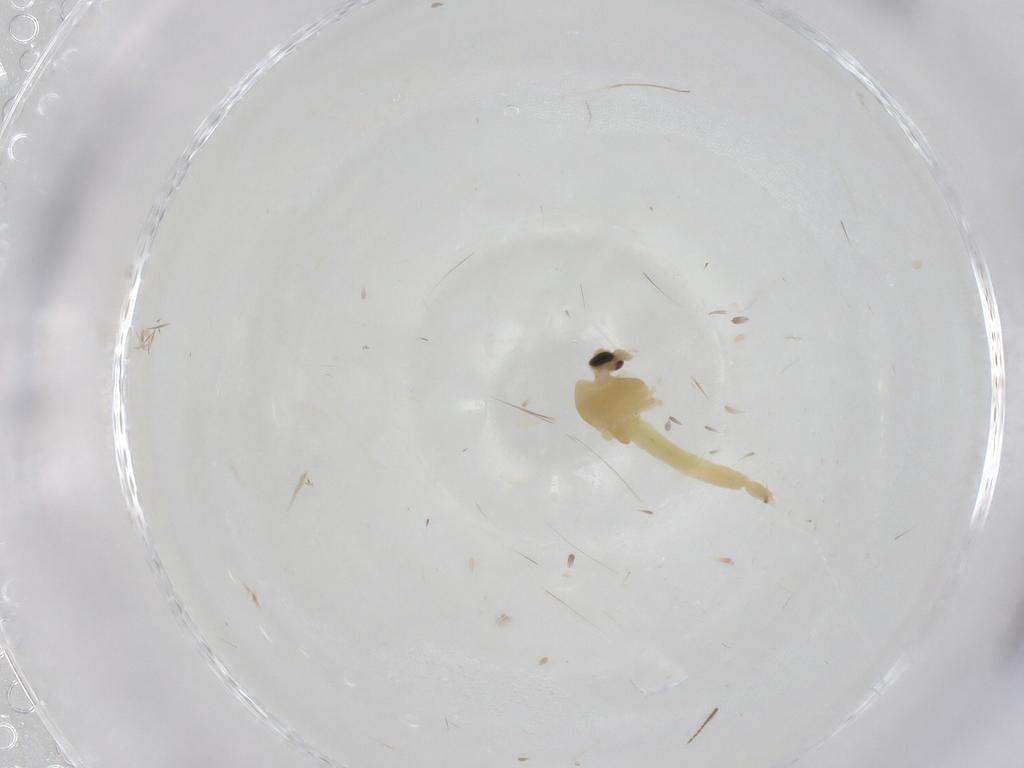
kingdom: Animalia
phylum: Arthropoda
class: Insecta
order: Diptera
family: Chironomidae
